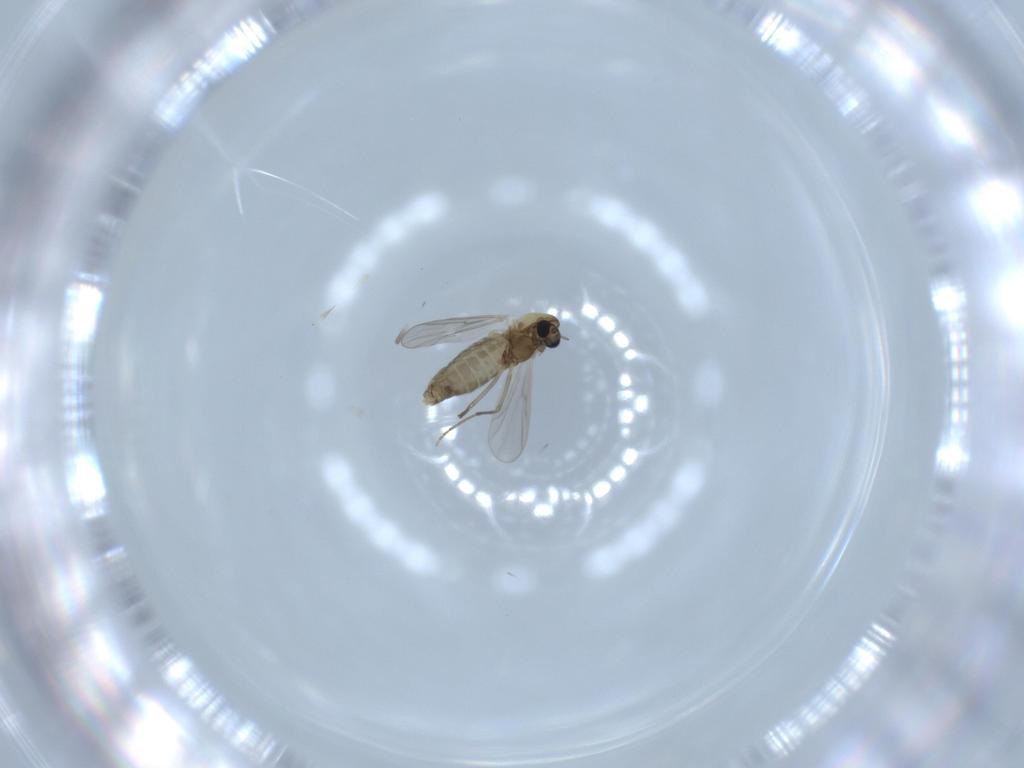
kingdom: Animalia
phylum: Arthropoda
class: Insecta
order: Diptera
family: Chironomidae
